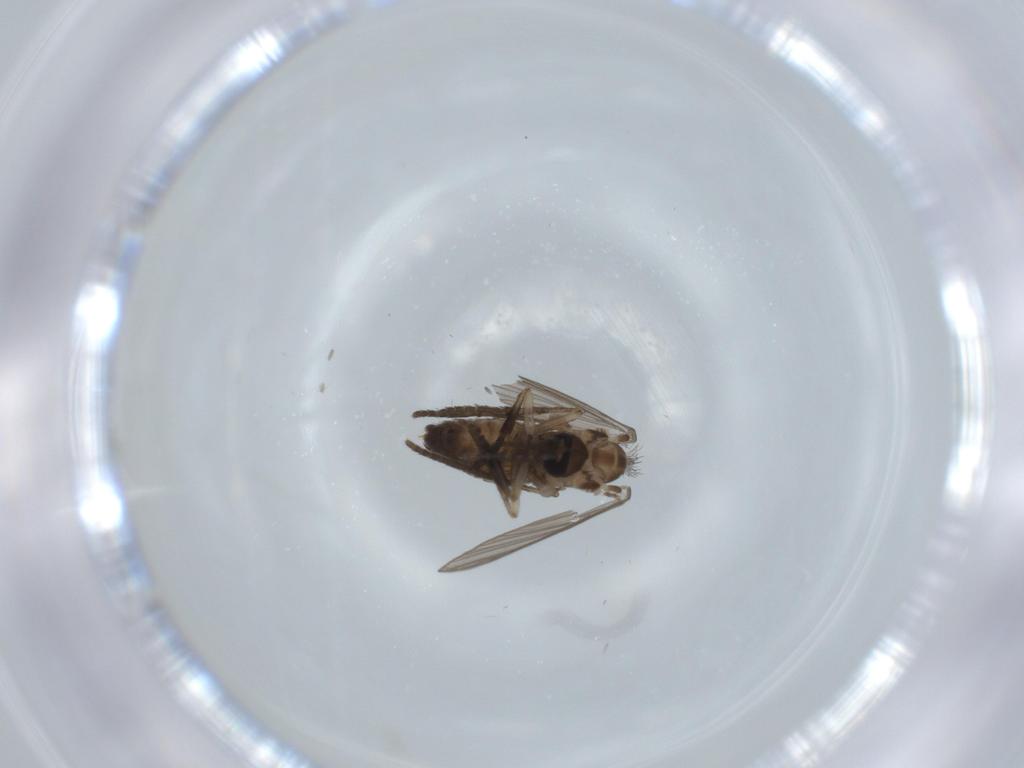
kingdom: Animalia
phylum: Arthropoda
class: Insecta
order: Diptera
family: Psychodidae
